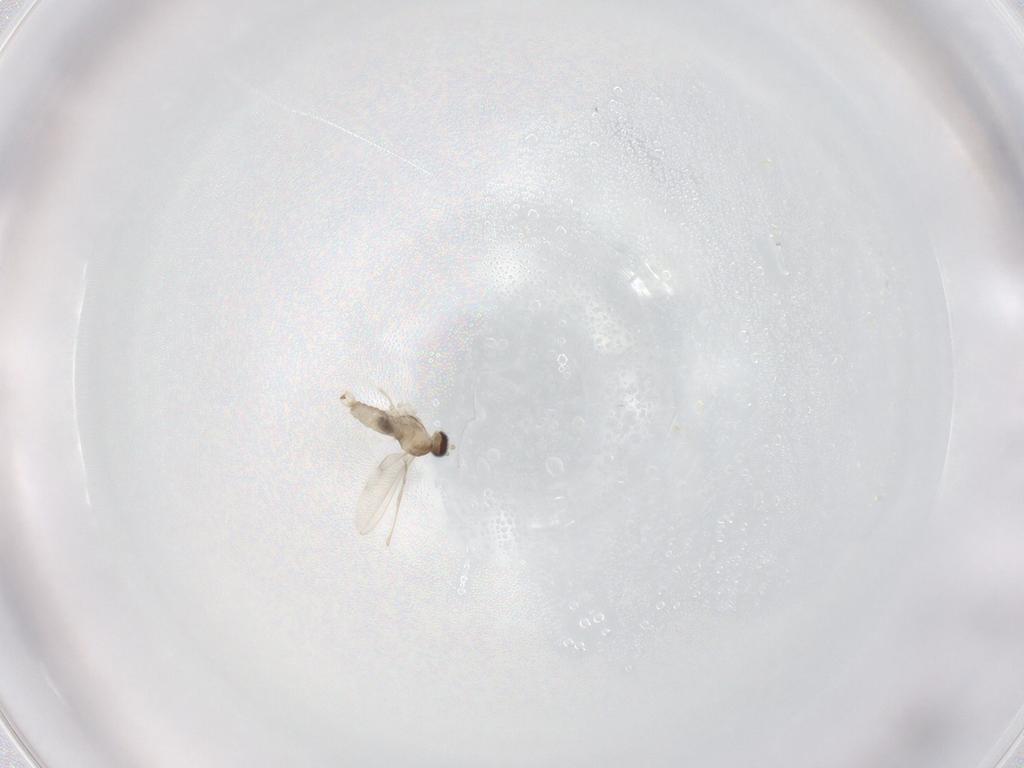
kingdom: Animalia
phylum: Arthropoda
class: Insecta
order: Diptera
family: Cecidomyiidae
